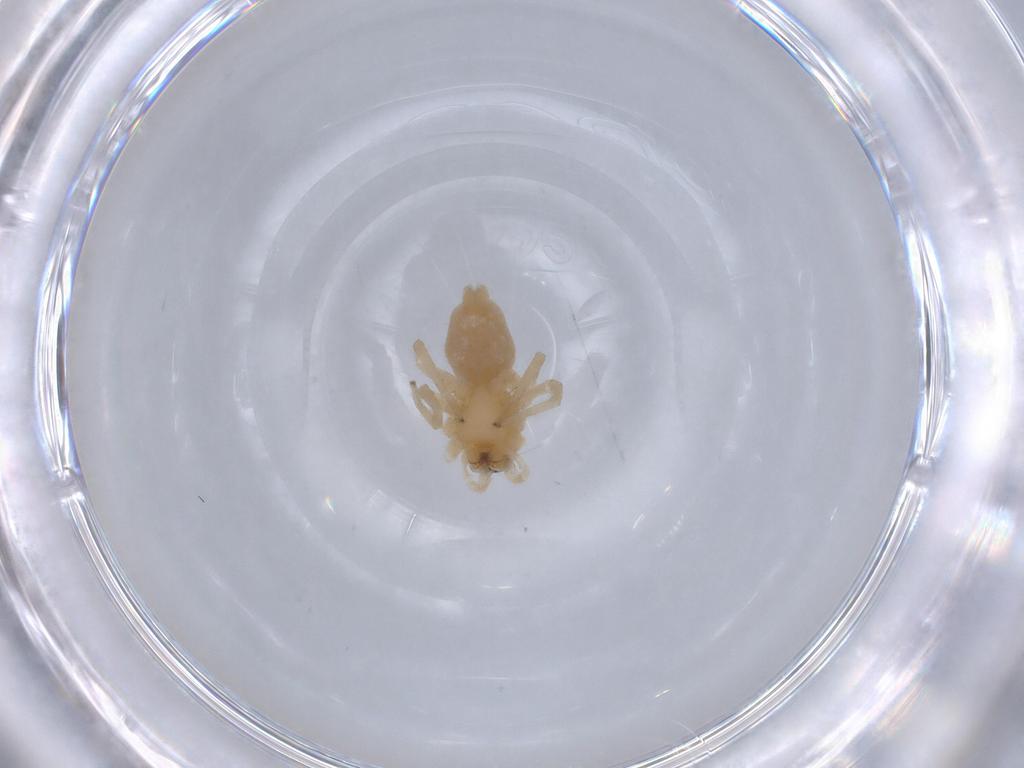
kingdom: Animalia
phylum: Arthropoda
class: Arachnida
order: Araneae
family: Cheiracanthiidae
